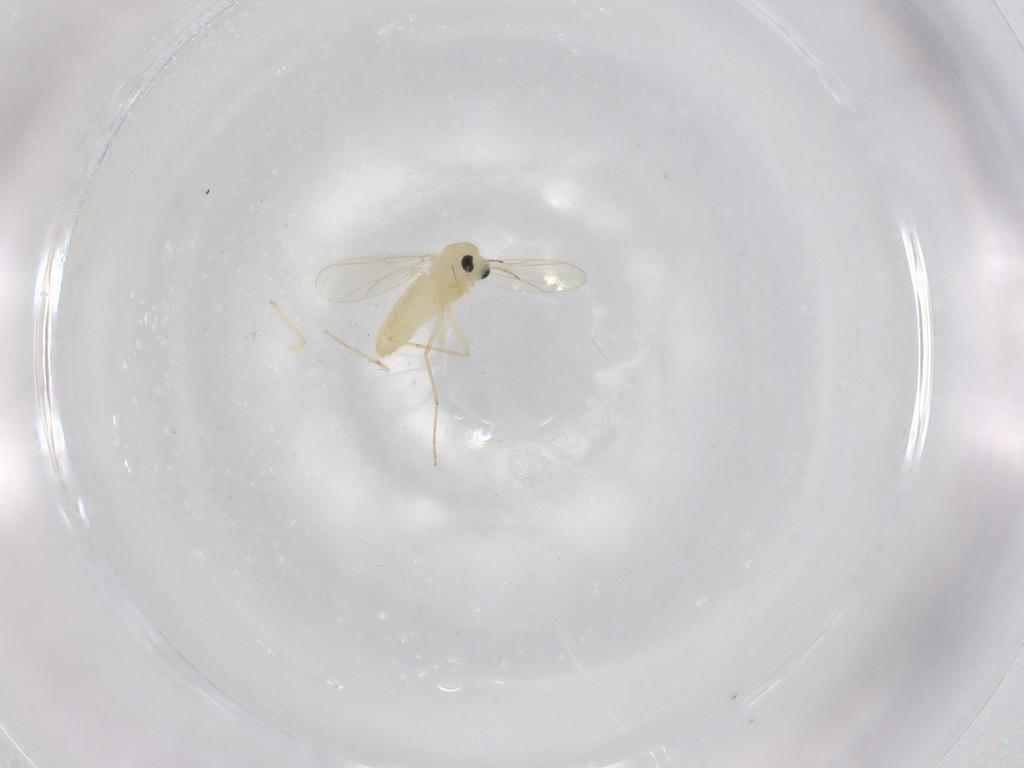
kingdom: Animalia
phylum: Arthropoda
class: Insecta
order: Diptera
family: Chironomidae
